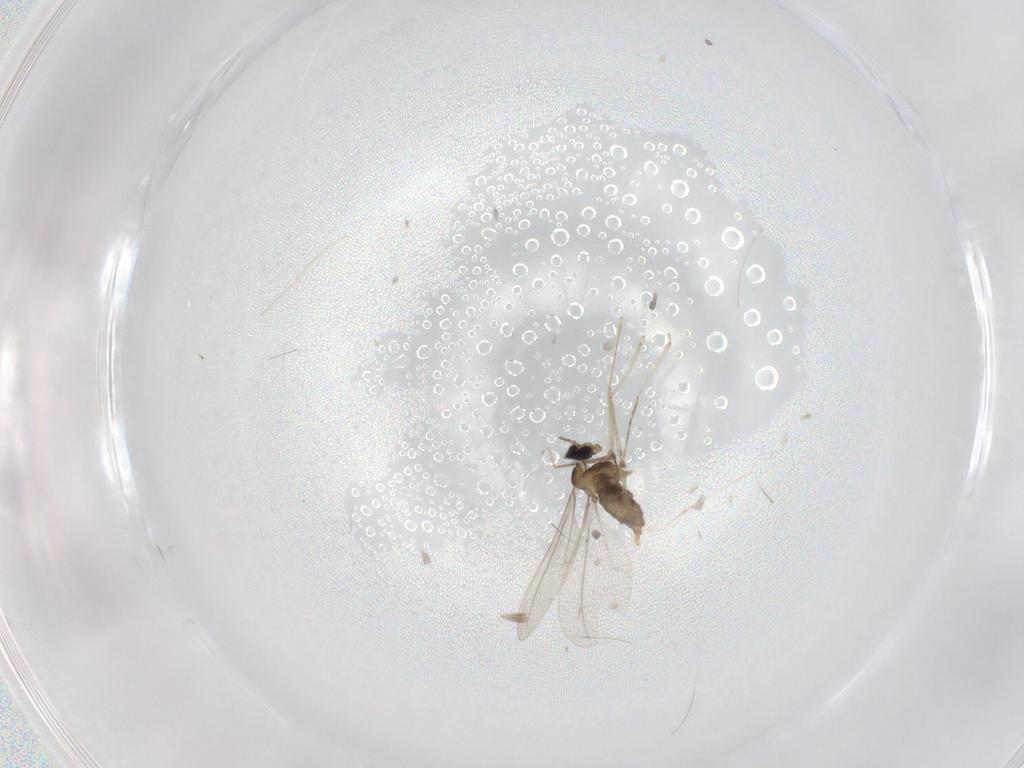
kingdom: Animalia
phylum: Arthropoda
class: Insecta
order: Diptera
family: Cecidomyiidae
